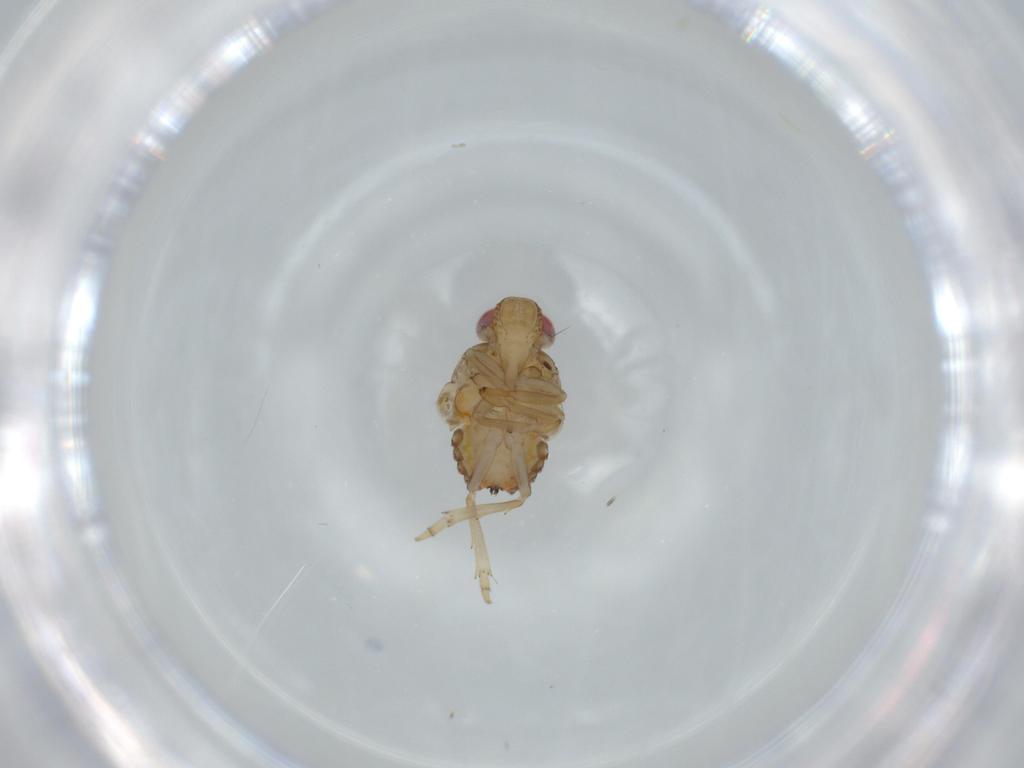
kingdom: Animalia
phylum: Arthropoda
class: Insecta
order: Hemiptera
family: Issidae
